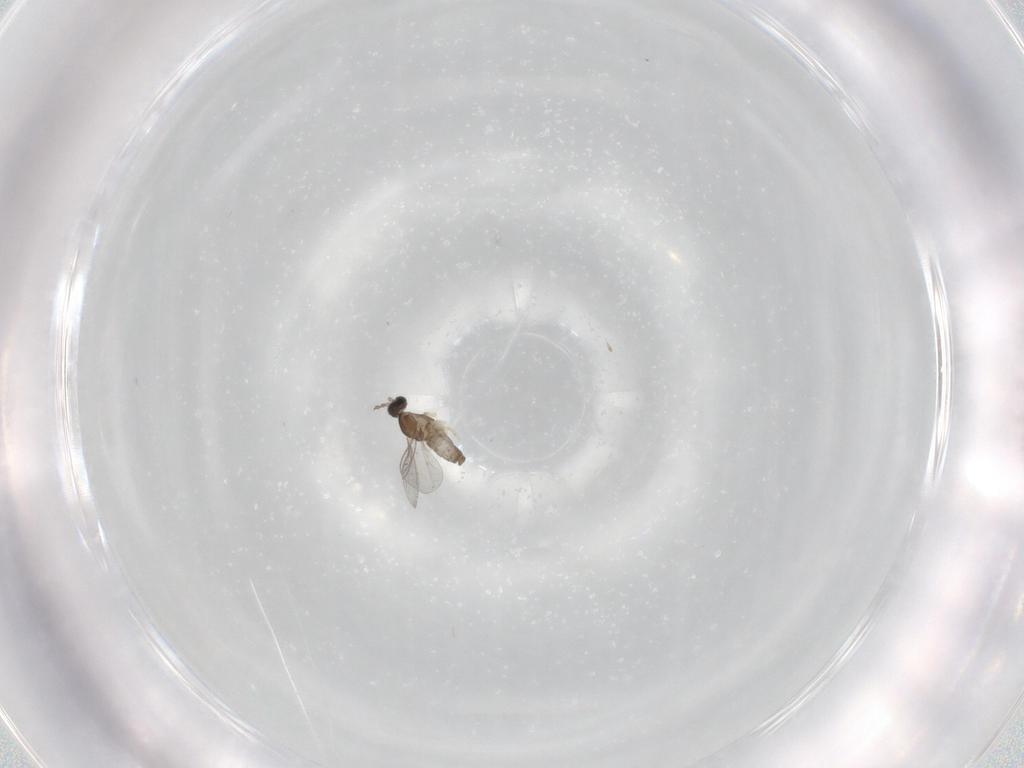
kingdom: Animalia
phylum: Arthropoda
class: Insecta
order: Diptera
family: Cecidomyiidae
